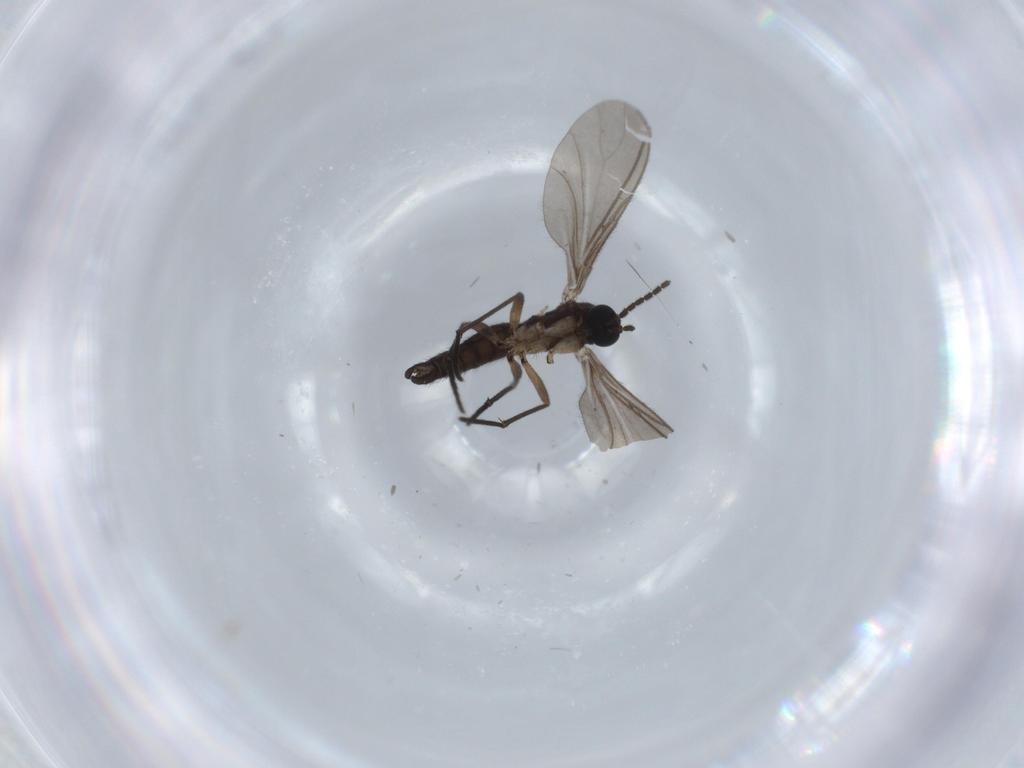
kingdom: Animalia
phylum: Arthropoda
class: Insecta
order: Diptera
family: Sciaridae
